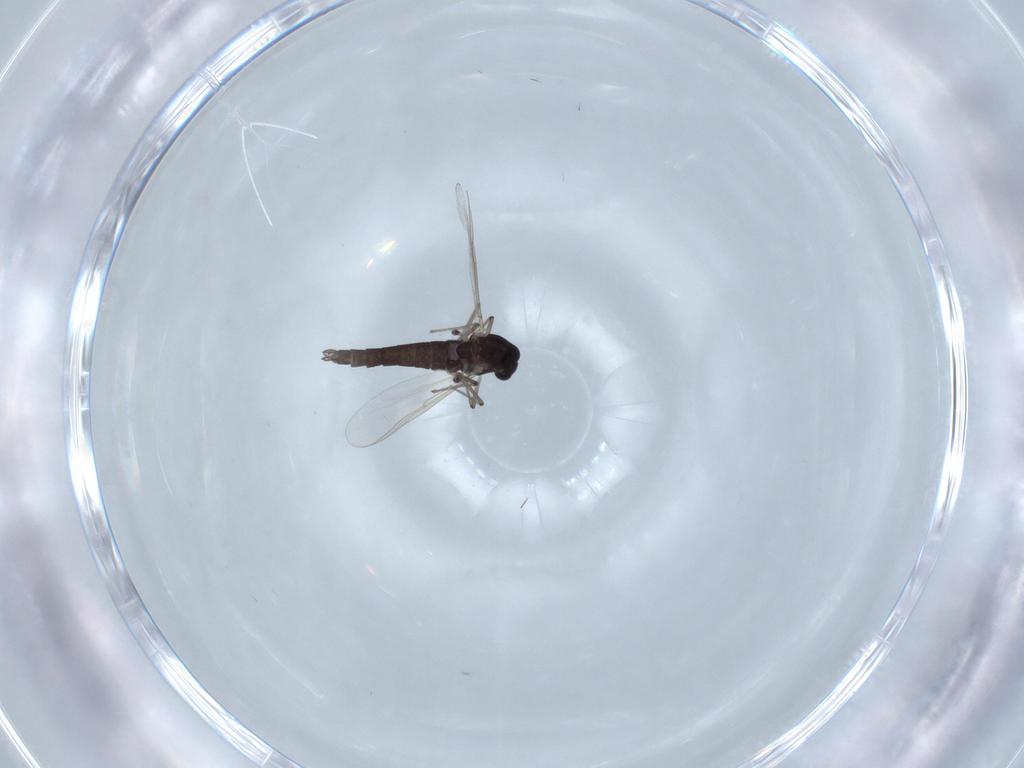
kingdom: Animalia
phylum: Arthropoda
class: Insecta
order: Diptera
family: Chironomidae
